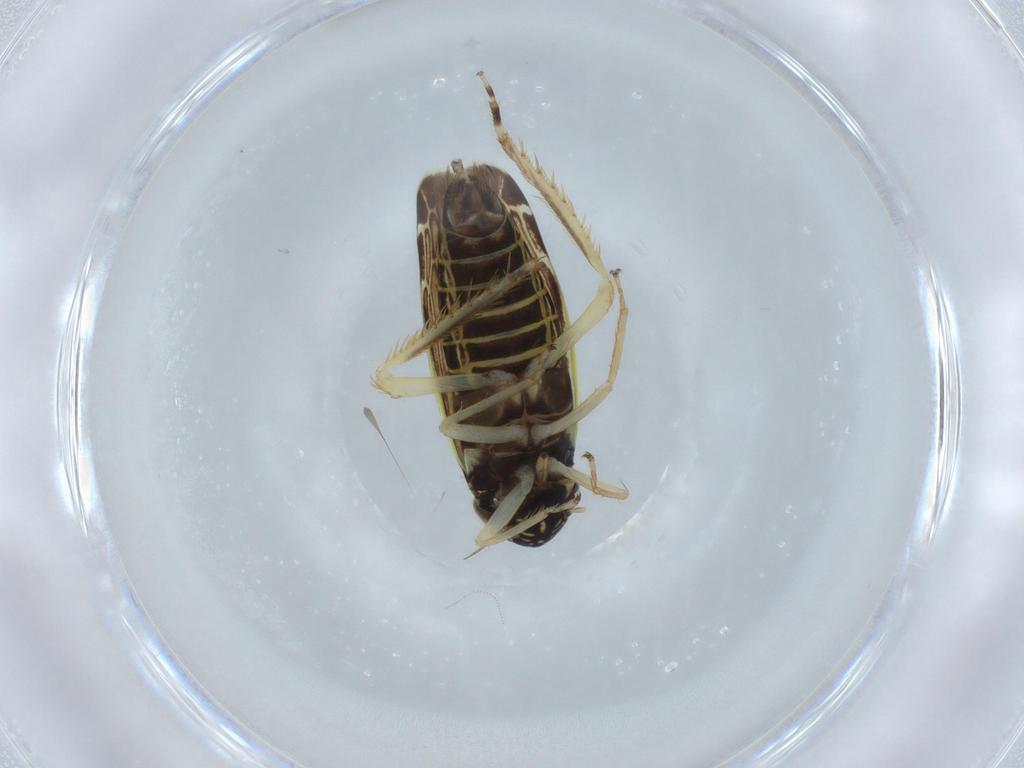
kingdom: Animalia
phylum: Arthropoda
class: Insecta
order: Hemiptera
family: Cicadellidae
